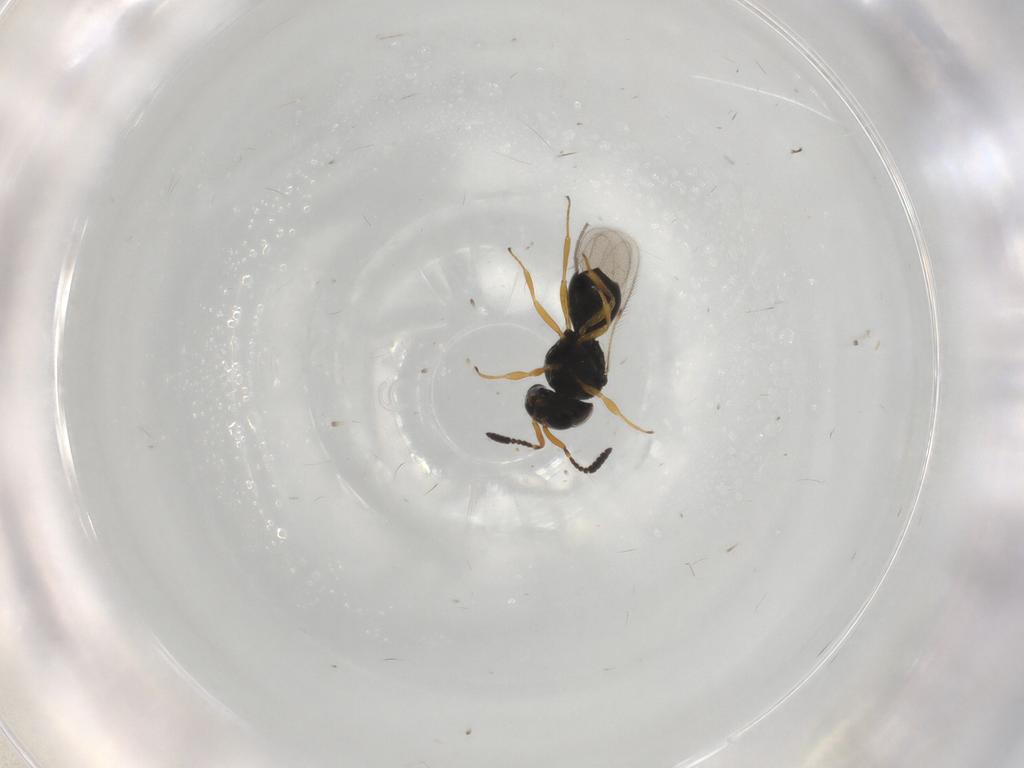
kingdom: Animalia
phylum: Arthropoda
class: Insecta
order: Hymenoptera
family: Scelionidae
